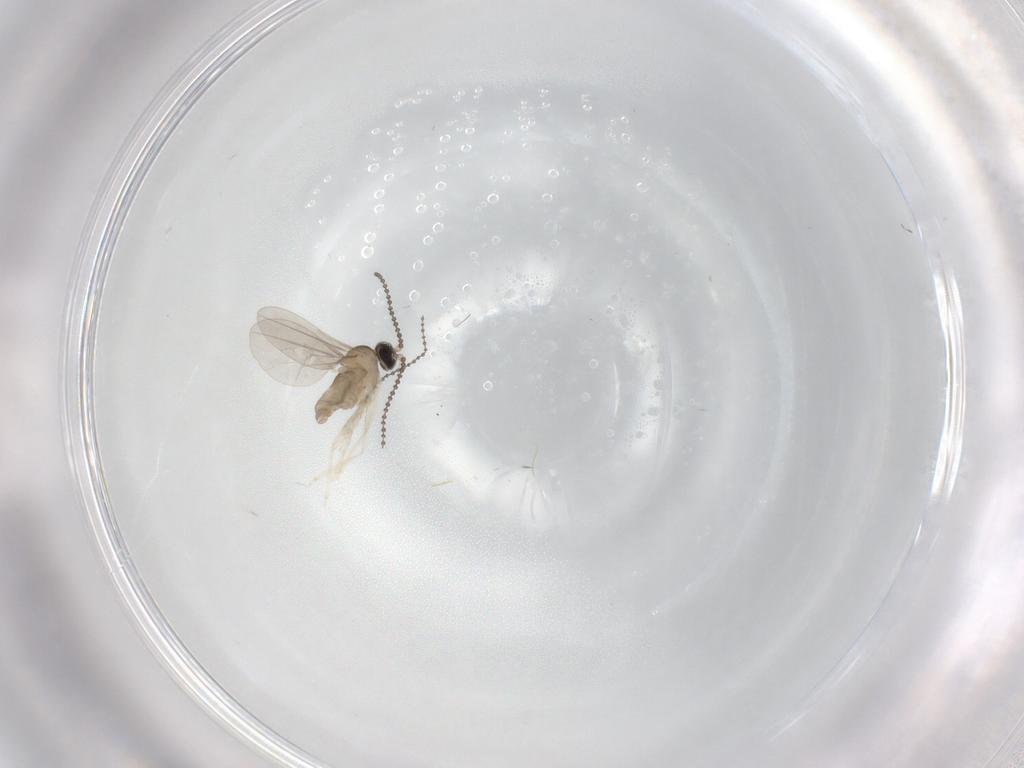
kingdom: Animalia
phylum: Arthropoda
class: Insecta
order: Diptera
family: Cecidomyiidae
